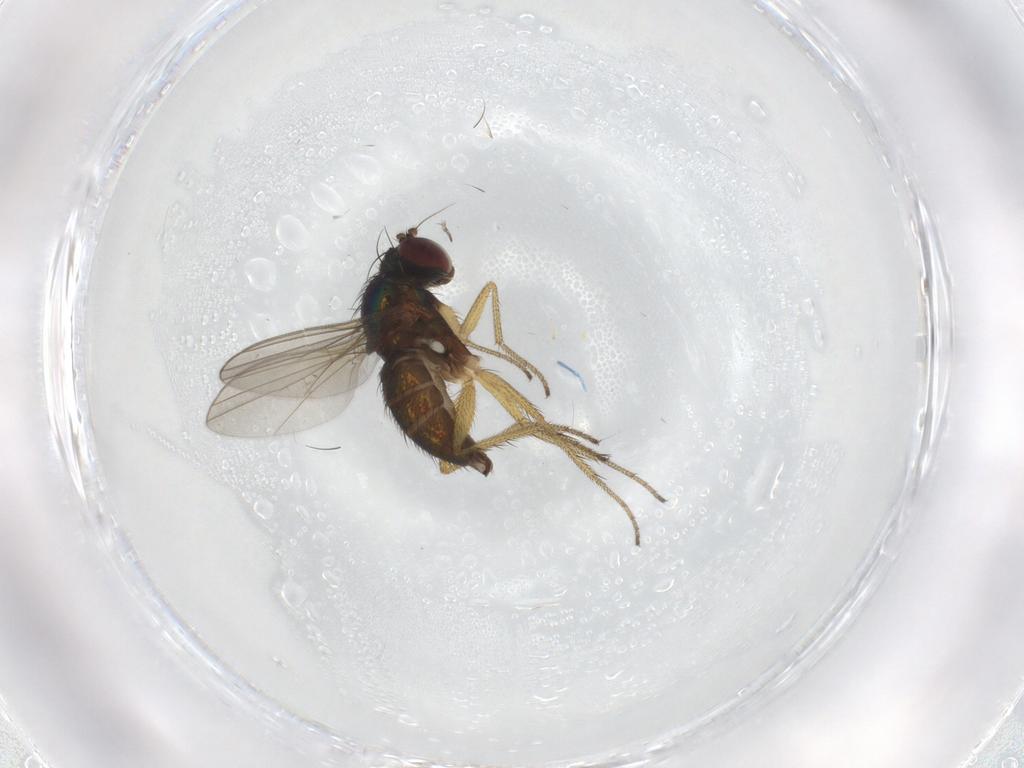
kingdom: Animalia
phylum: Arthropoda
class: Insecta
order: Diptera
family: Dolichopodidae
